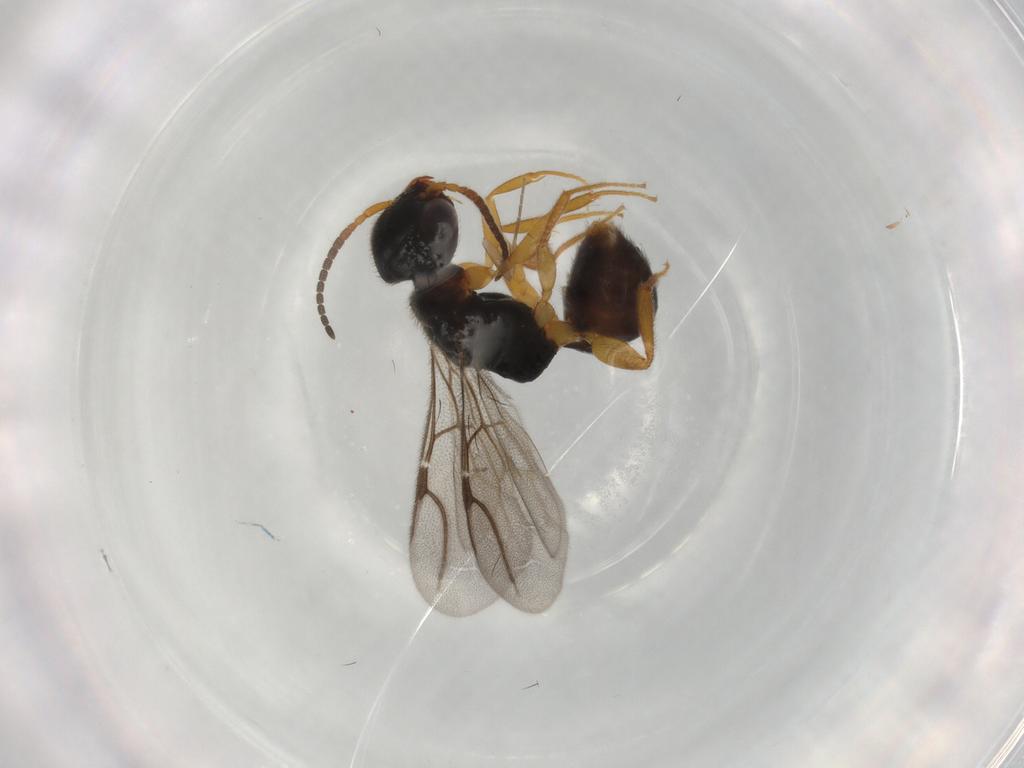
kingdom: Animalia
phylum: Arthropoda
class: Insecta
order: Hymenoptera
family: Bethylidae
